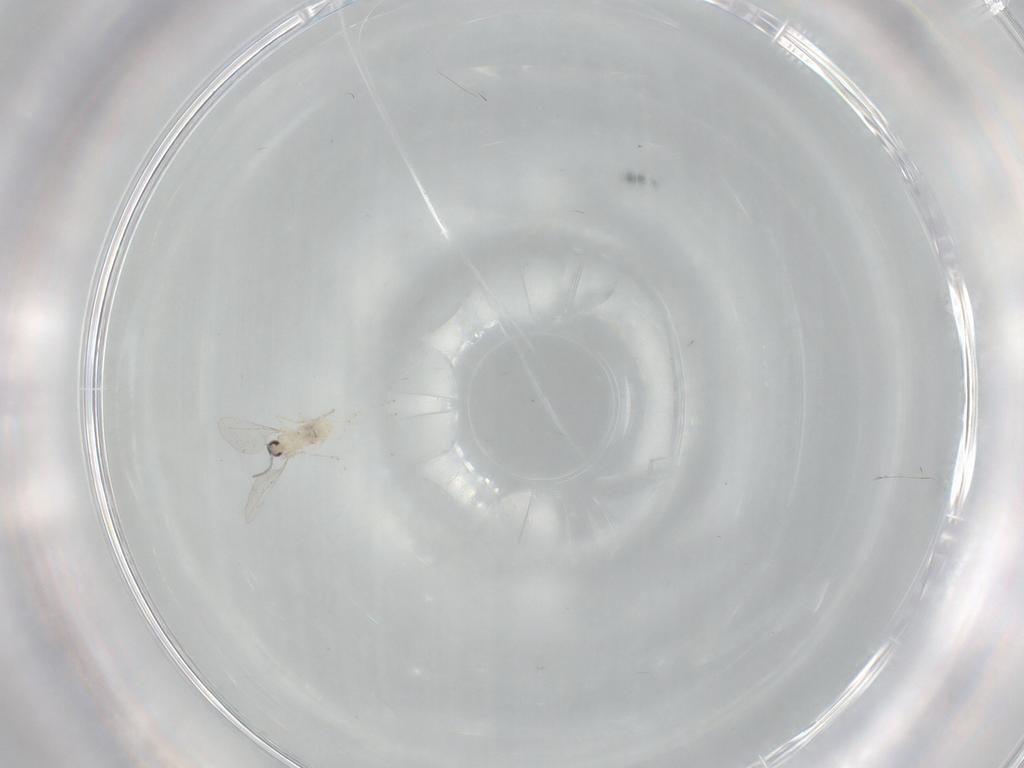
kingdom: Animalia
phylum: Arthropoda
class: Insecta
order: Diptera
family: Cecidomyiidae
